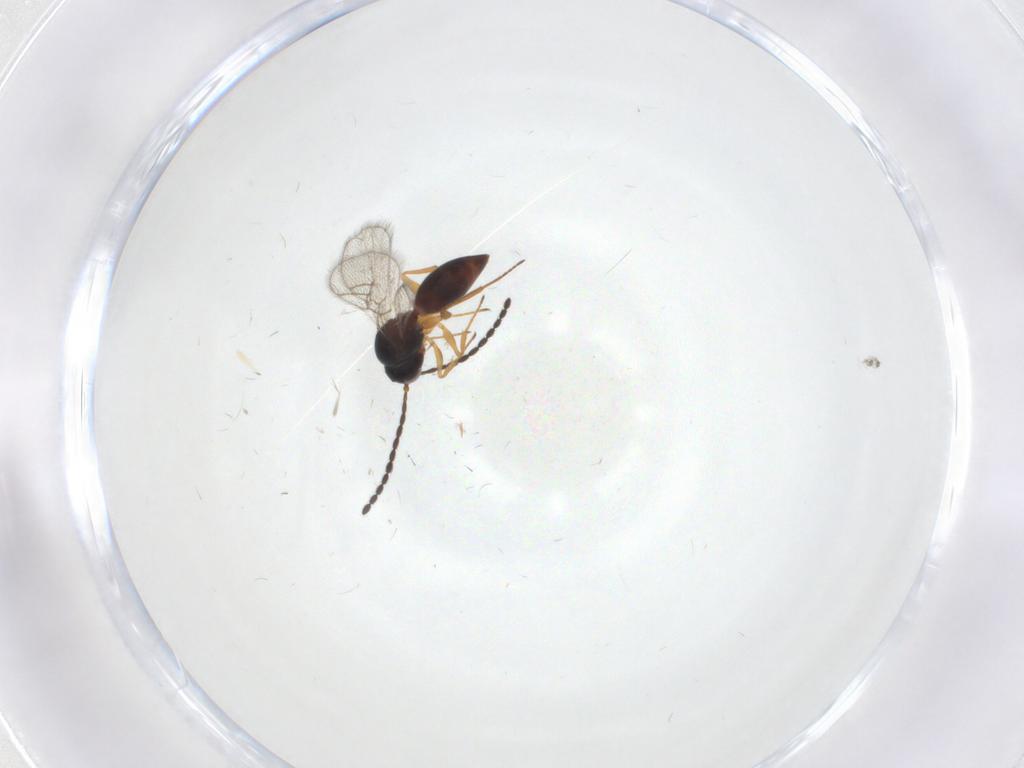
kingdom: Animalia
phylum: Arthropoda
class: Insecta
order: Hymenoptera
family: Figitidae
